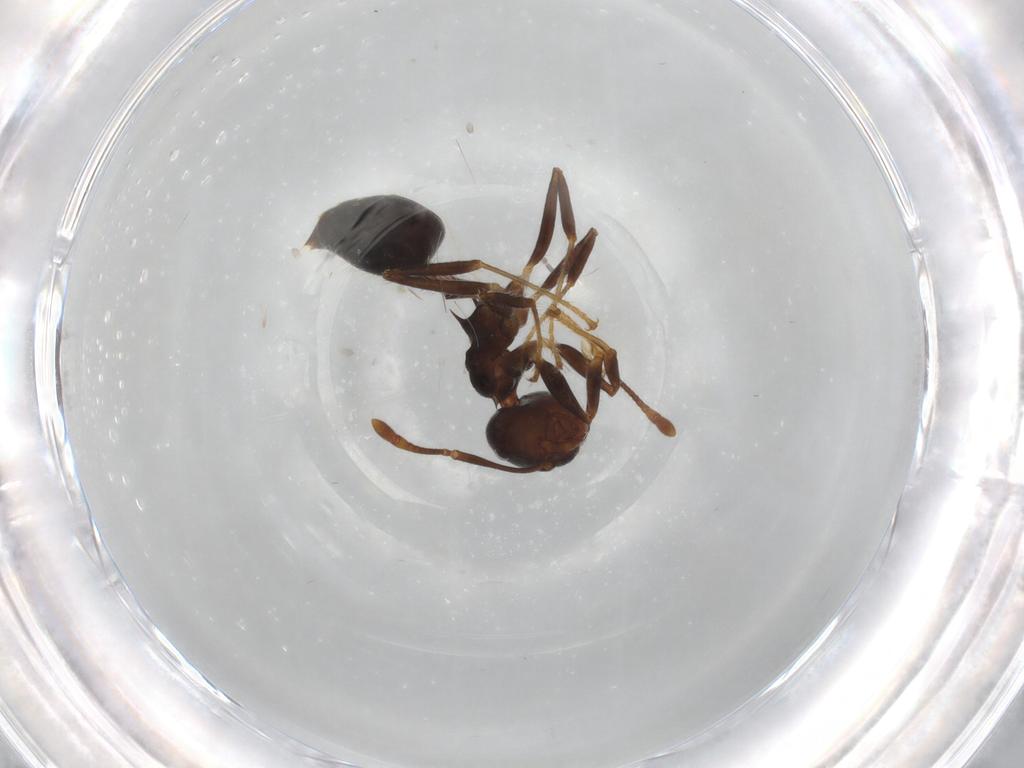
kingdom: Animalia
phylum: Arthropoda
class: Insecta
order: Hymenoptera
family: Formicidae
